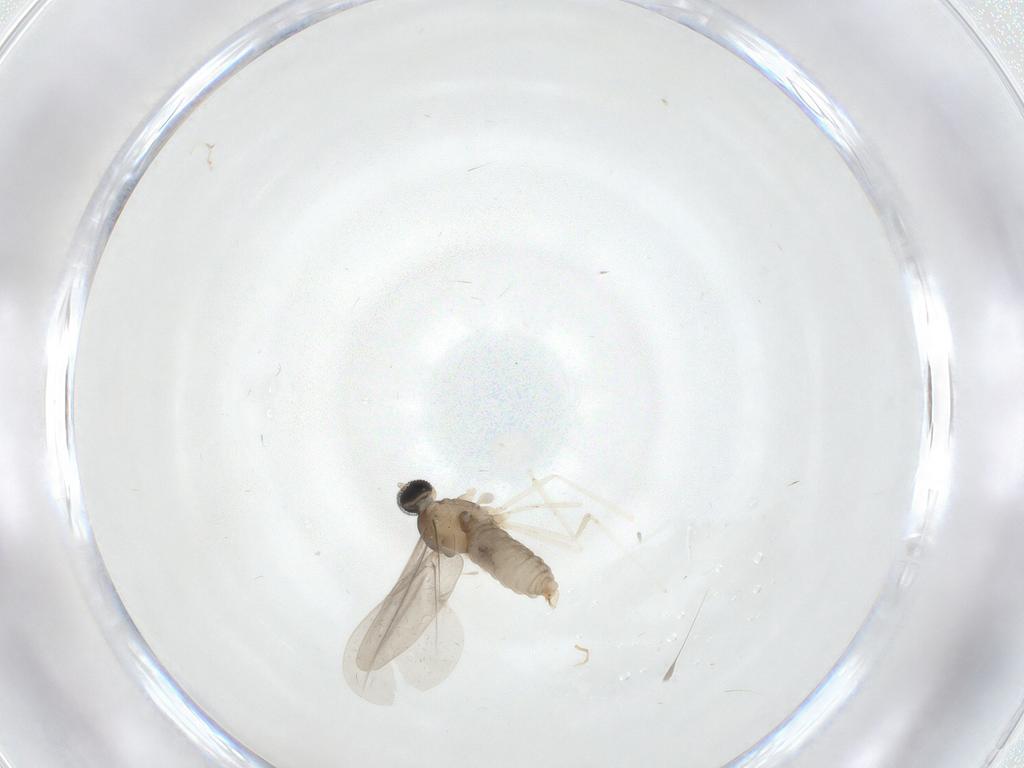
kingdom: Animalia
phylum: Arthropoda
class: Insecta
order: Diptera
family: Cecidomyiidae
